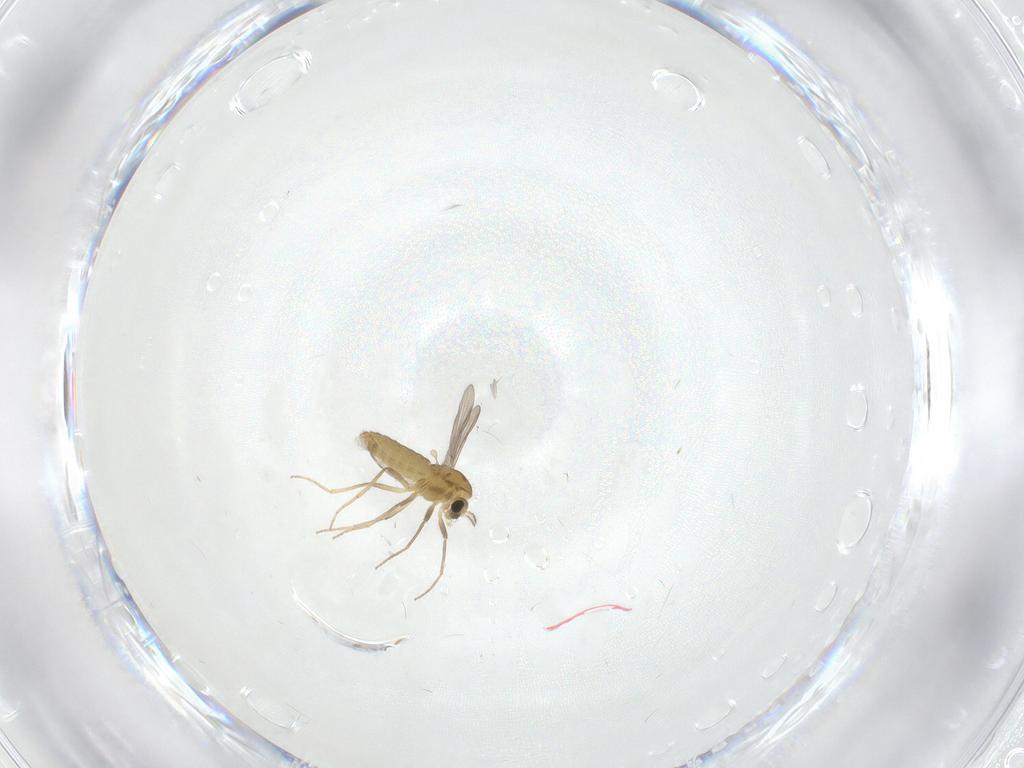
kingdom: Animalia
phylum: Arthropoda
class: Insecta
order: Diptera
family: Chironomidae
